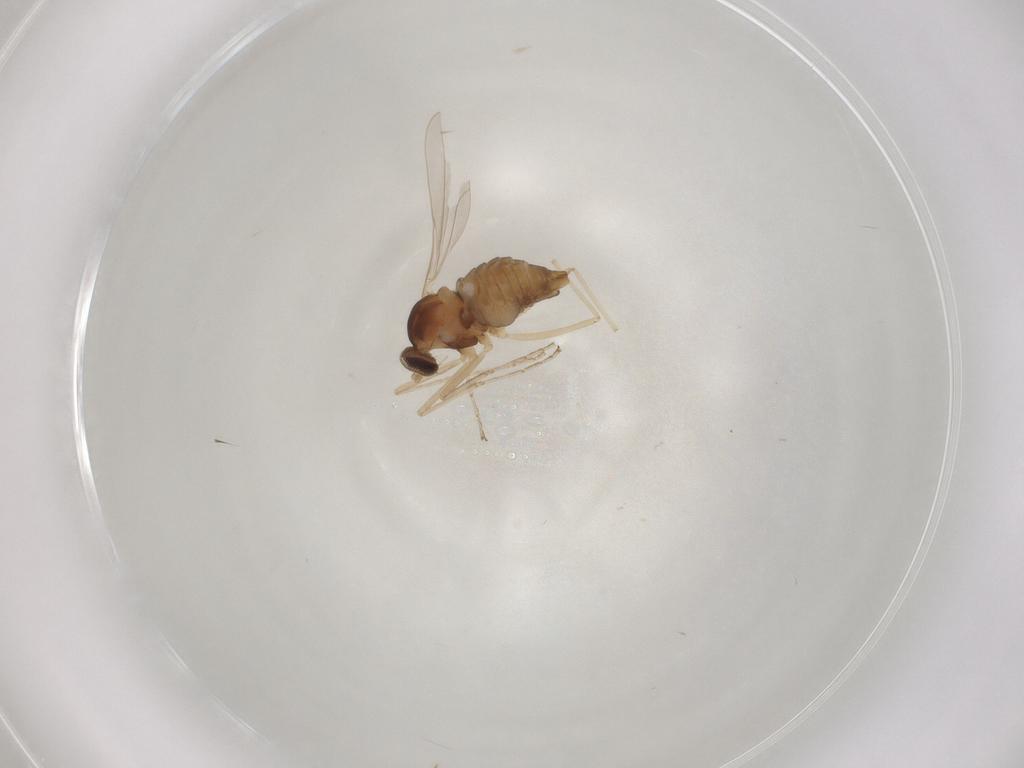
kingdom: Animalia
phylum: Arthropoda
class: Insecta
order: Diptera
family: Cecidomyiidae
